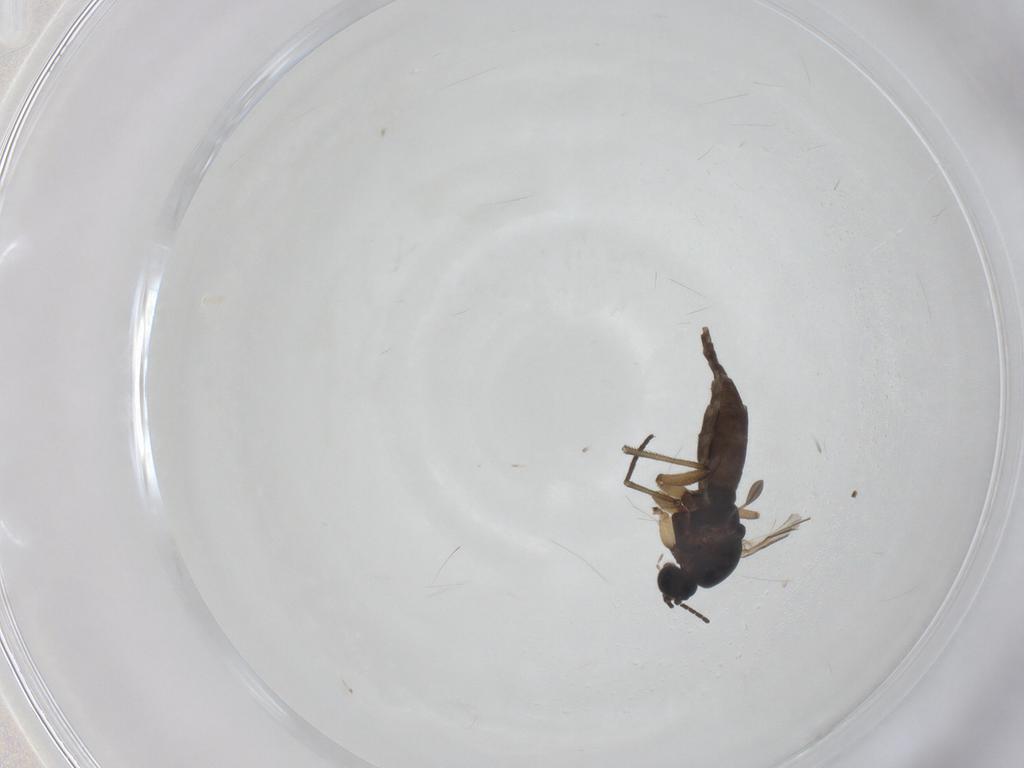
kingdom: Animalia
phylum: Arthropoda
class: Insecta
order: Diptera
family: Sciaridae
